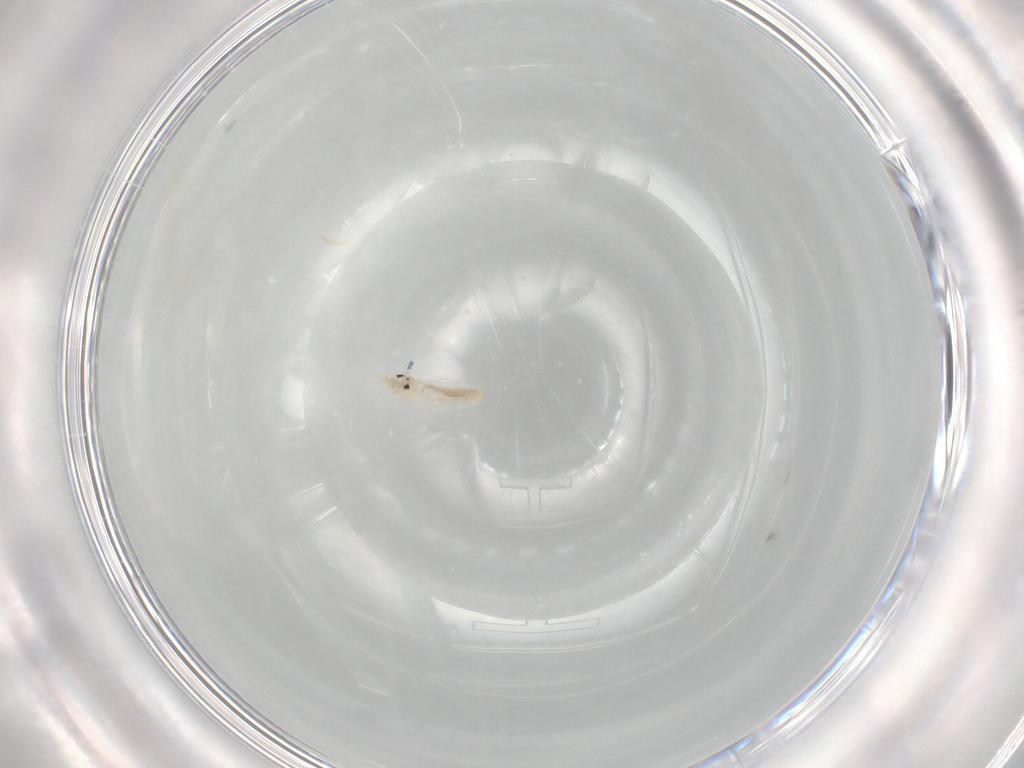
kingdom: Animalia
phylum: Arthropoda
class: Collembola
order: Entomobryomorpha
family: Entomobryidae
